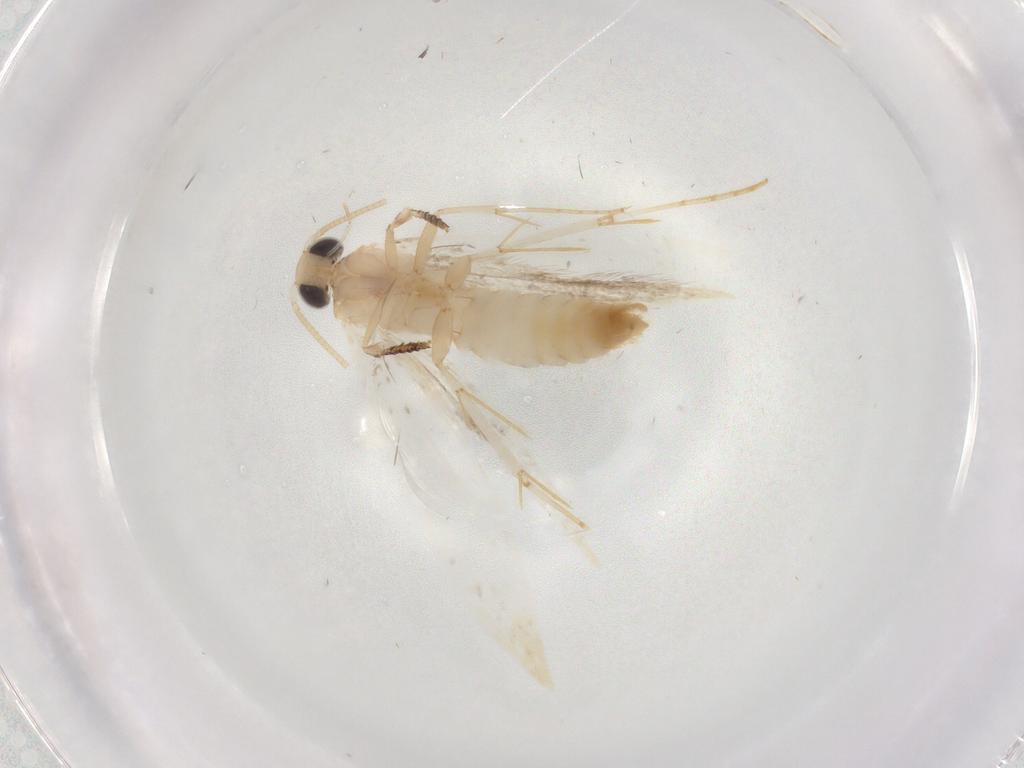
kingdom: Animalia
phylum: Arthropoda
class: Insecta
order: Lepidoptera
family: Tineidae
